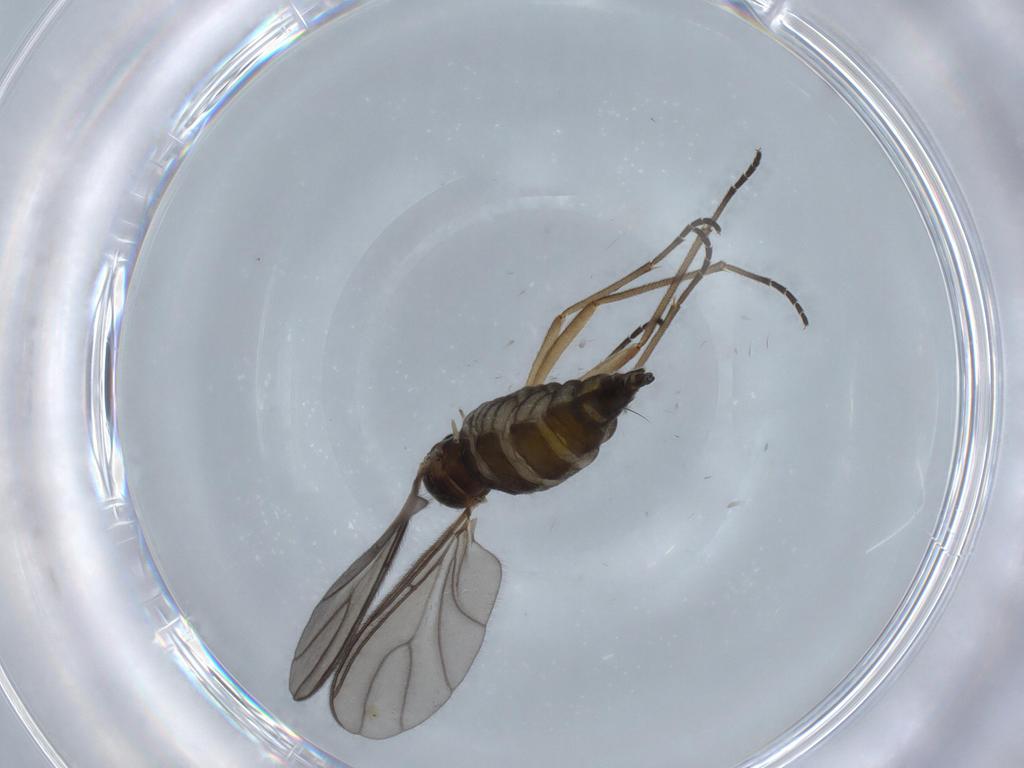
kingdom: Animalia
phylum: Arthropoda
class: Insecta
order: Diptera
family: Sciaridae
